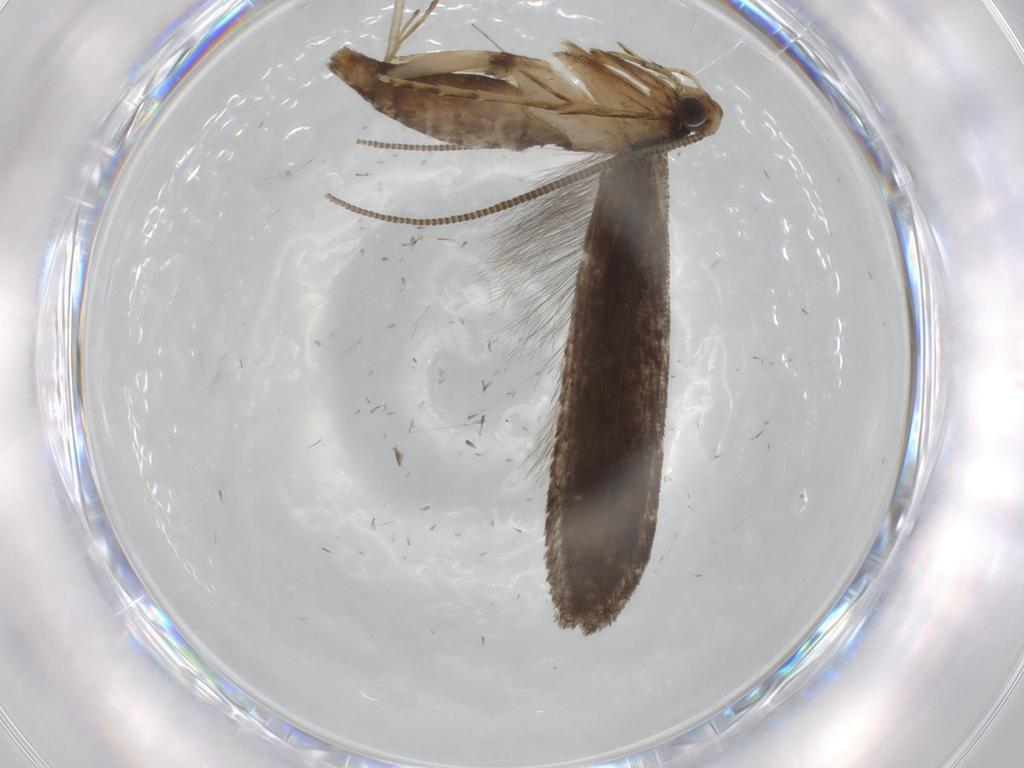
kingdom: Animalia
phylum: Arthropoda
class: Insecta
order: Lepidoptera
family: Tineidae
